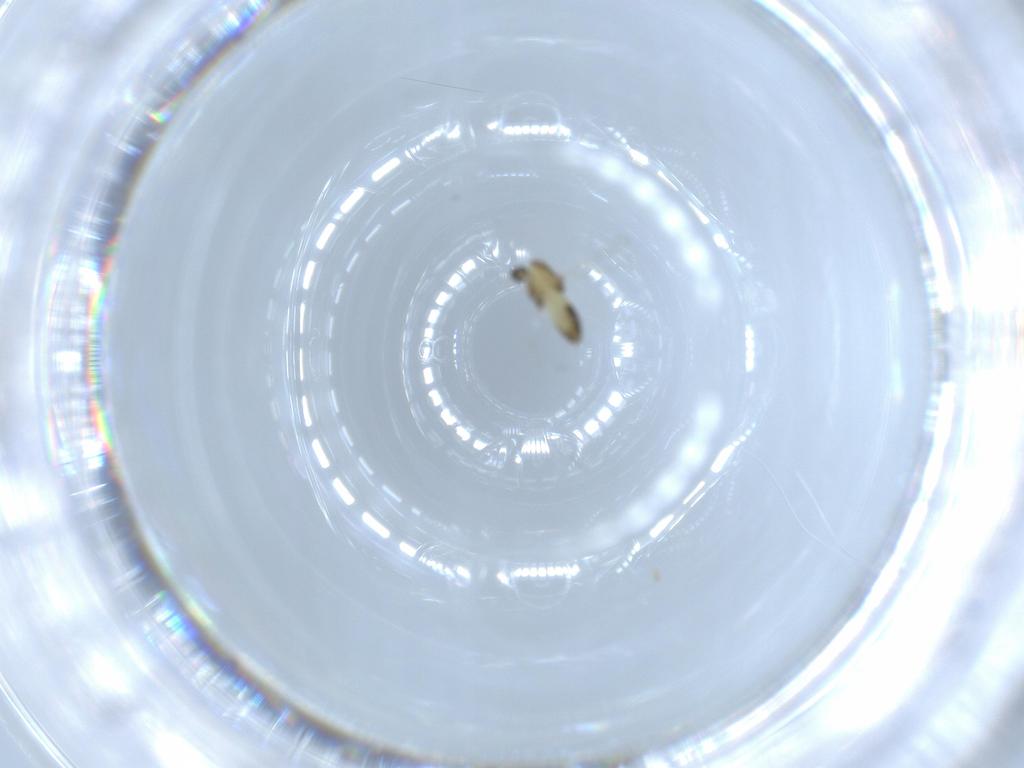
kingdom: Animalia
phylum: Arthropoda
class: Insecta
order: Diptera
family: Chironomidae
